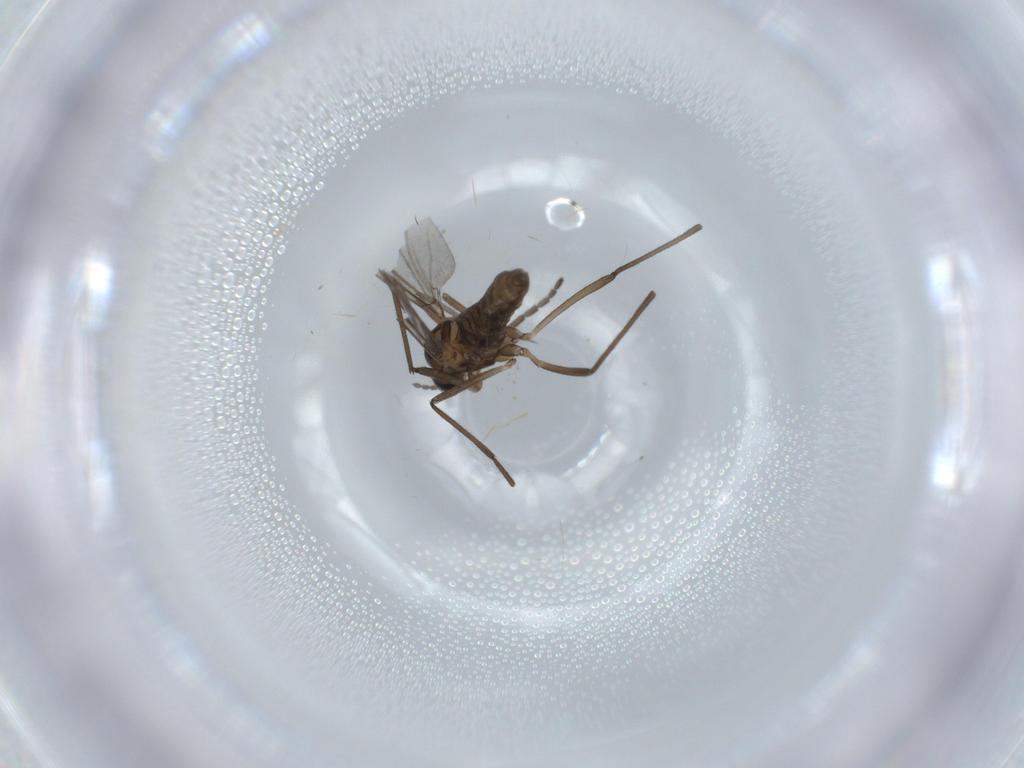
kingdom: Animalia
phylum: Arthropoda
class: Insecta
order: Diptera
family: Cecidomyiidae
